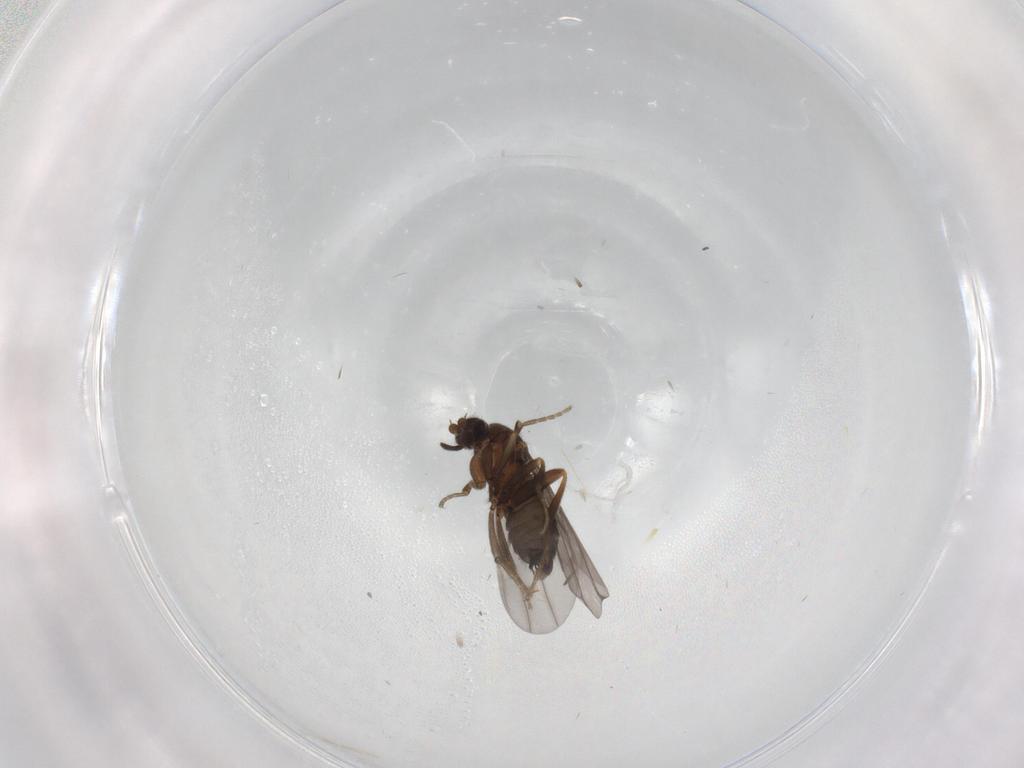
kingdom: Animalia
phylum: Arthropoda
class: Insecta
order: Diptera
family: Phoridae
